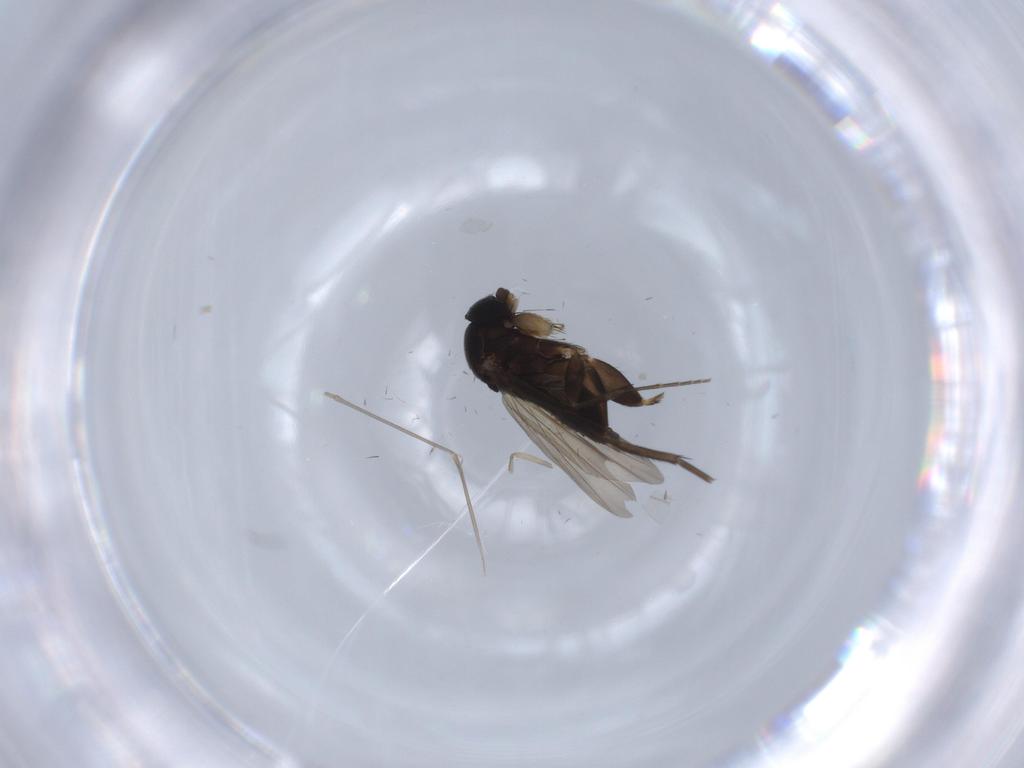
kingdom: Animalia
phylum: Arthropoda
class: Insecta
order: Diptera
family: Phoridae
